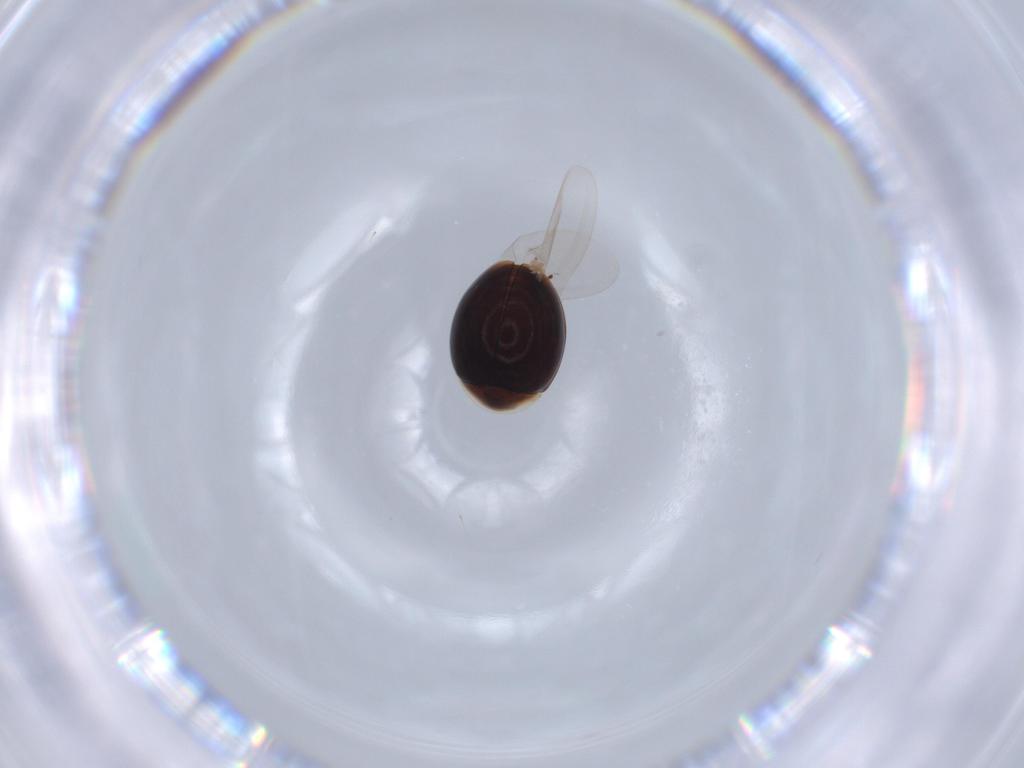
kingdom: Animalia
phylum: Arthropoda
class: Insecta
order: Coleoptera
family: Corylophidae
